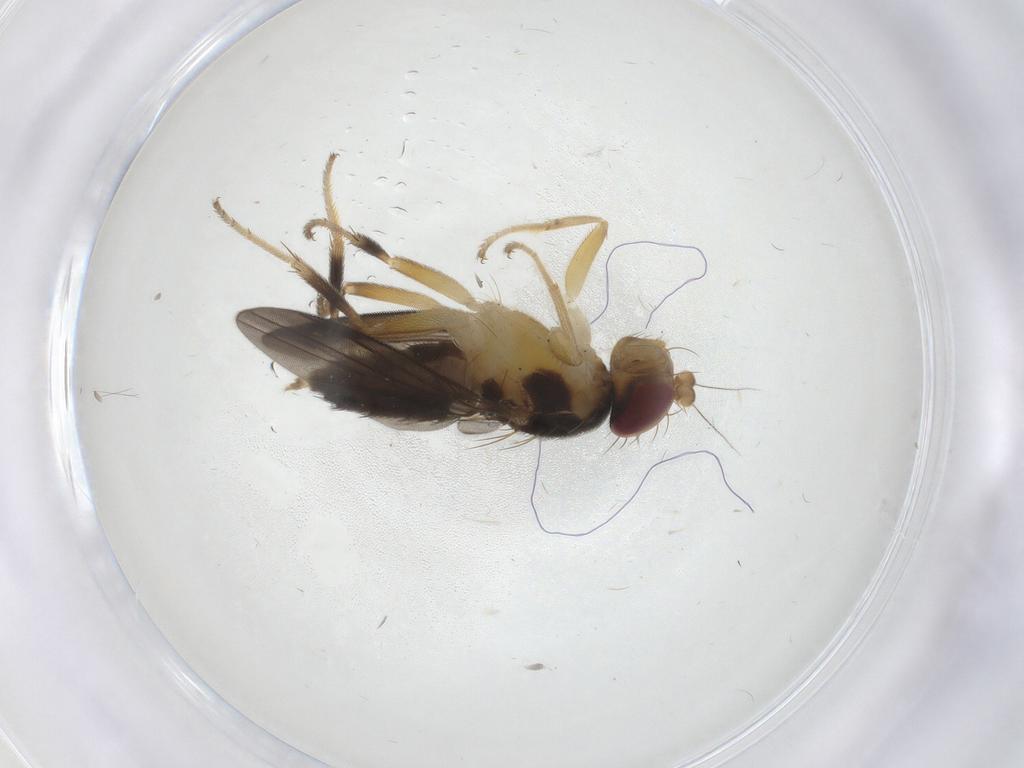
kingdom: Animalia
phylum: Arthropoda
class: Insecta
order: Diptera
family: Clusiidae
